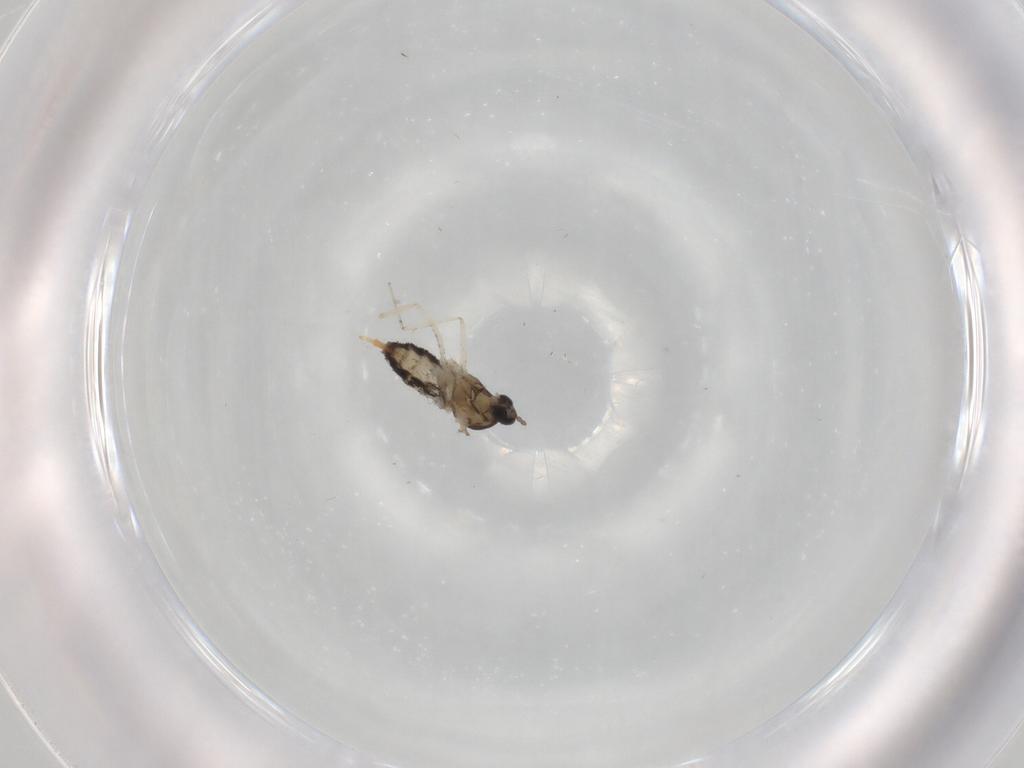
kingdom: Animalia
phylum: Arthropoda
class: Insecta
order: Diptera
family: Cecidomyiidae
